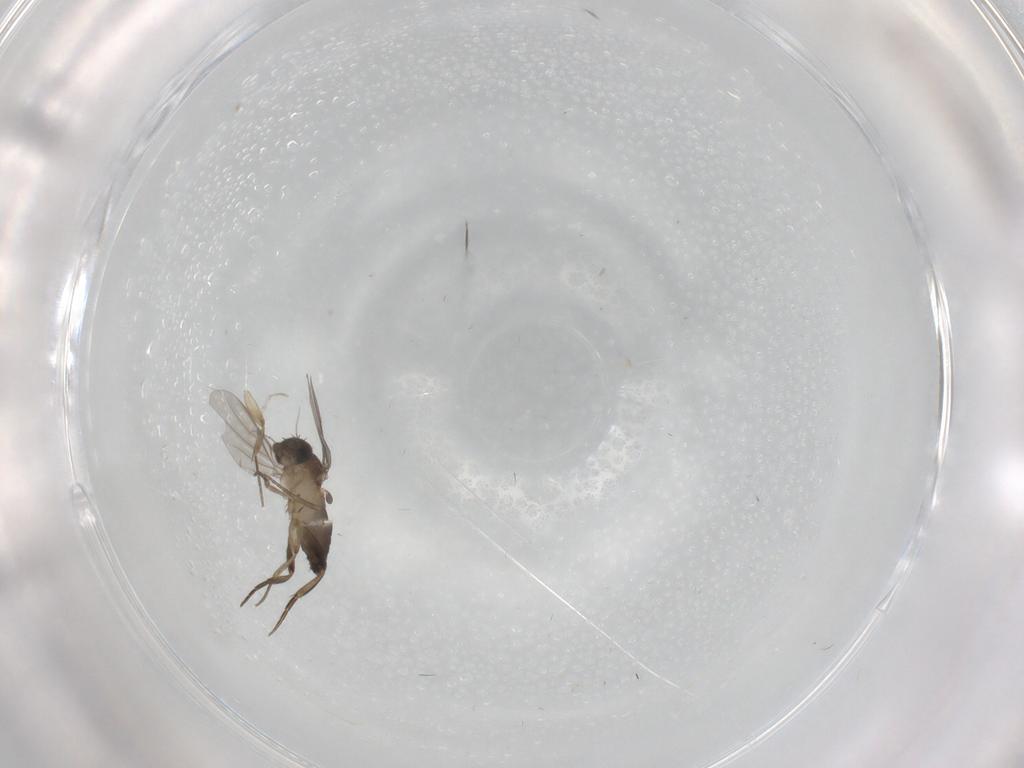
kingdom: Animalia
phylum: Arthropoda
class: Insecta
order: Diptera
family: Phoridae
